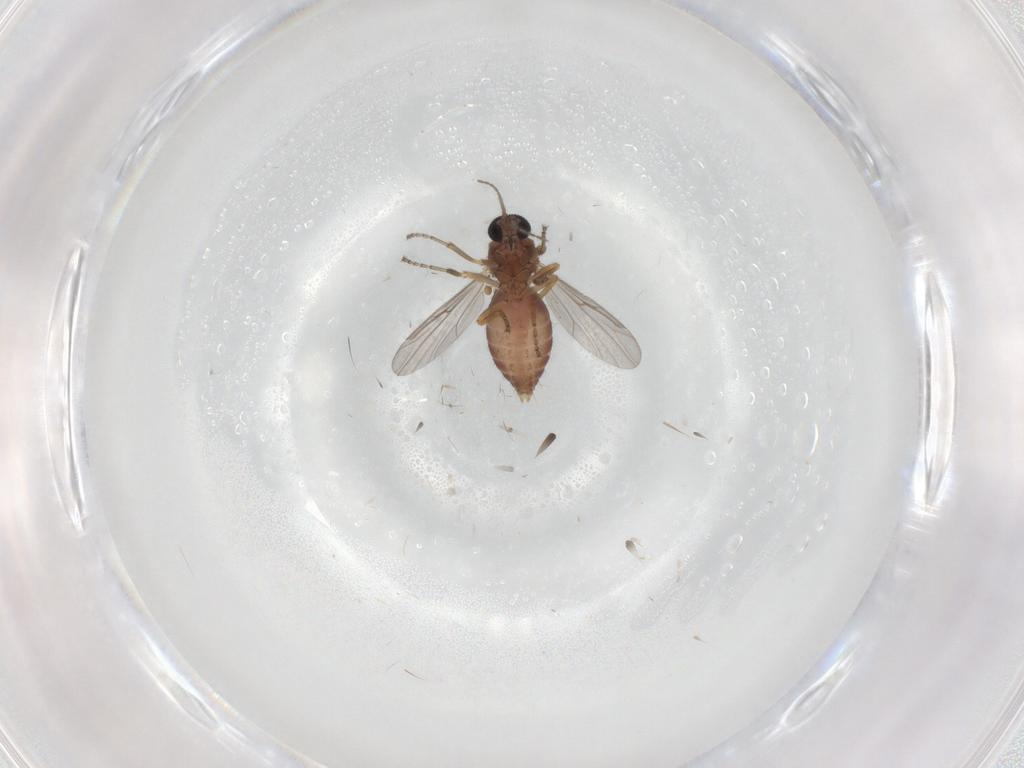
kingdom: Animalia
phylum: Arthropoda
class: Insecta
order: Diptera
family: Ceratopogonidae
